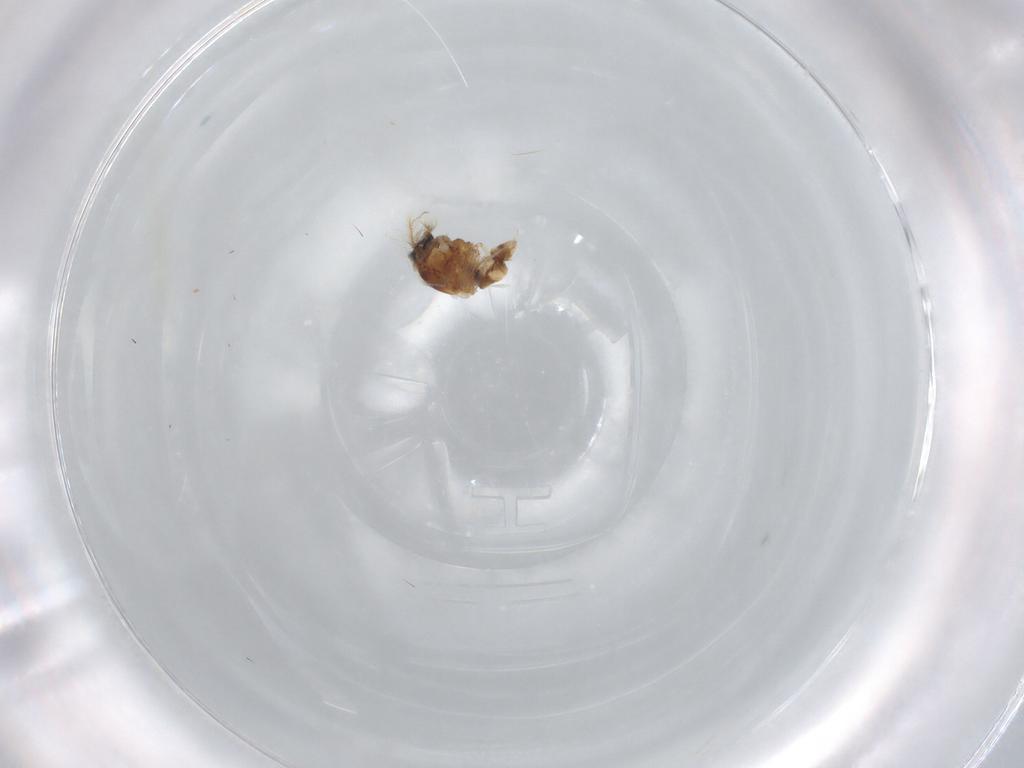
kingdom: Animalia
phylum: Arthropoda
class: Insecta
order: Diptera
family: Ceratopogonidae
